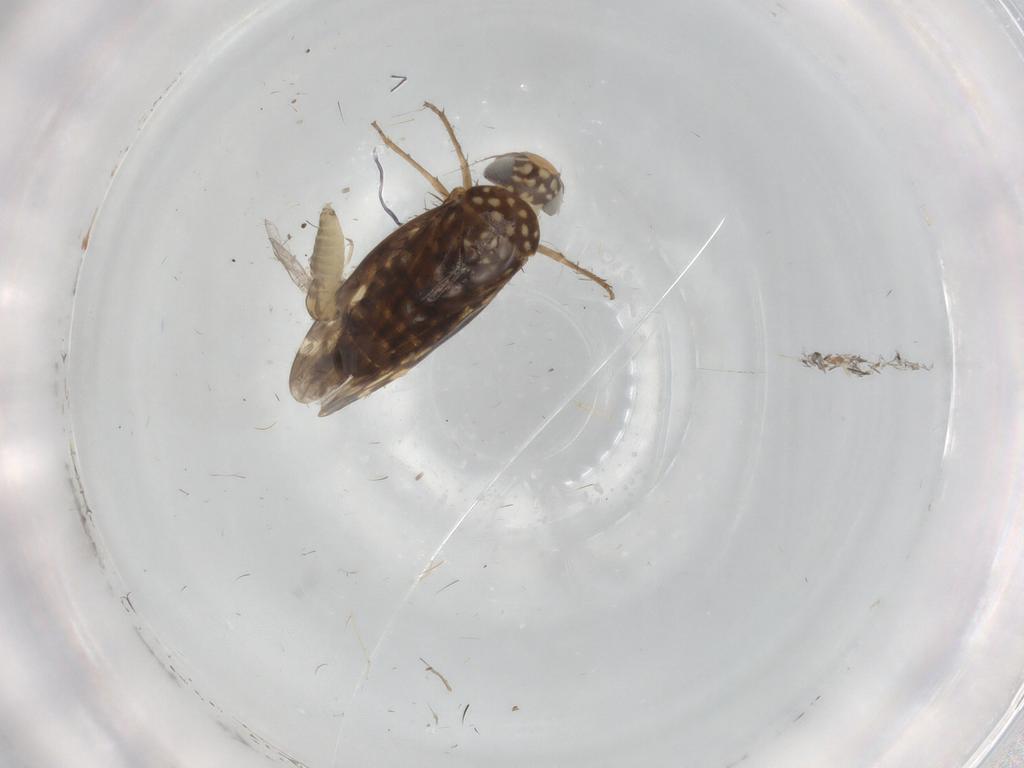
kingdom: Animalia
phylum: Arthropoda
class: Insecta
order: Hemiptera
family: Cicadellidae
